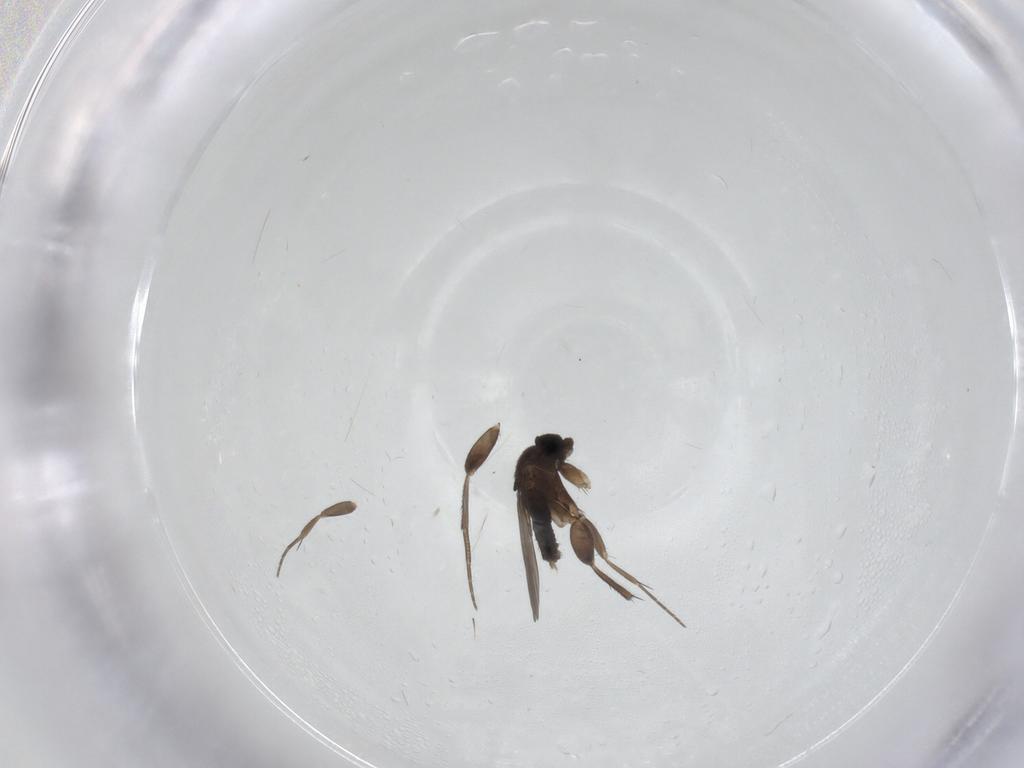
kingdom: Animalia
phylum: Arthropoda
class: Insecta
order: Diptera
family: Phoridae
